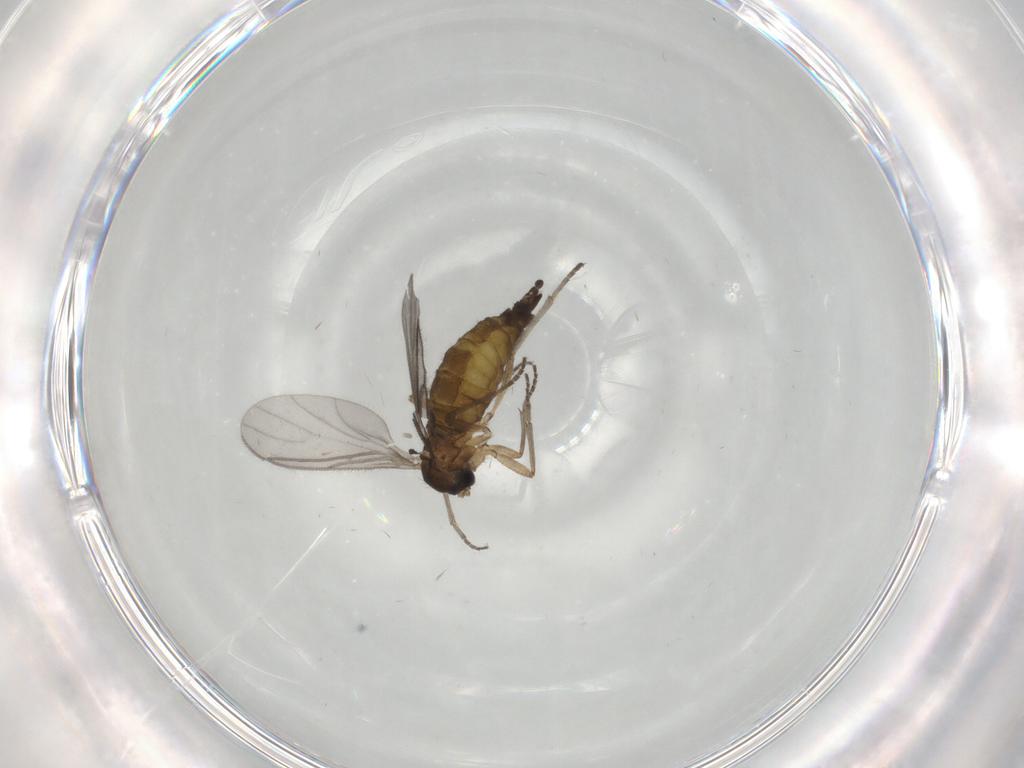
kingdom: Animalia
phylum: Arthropoda
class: Insecta
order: Diptera
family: Sciaridae
